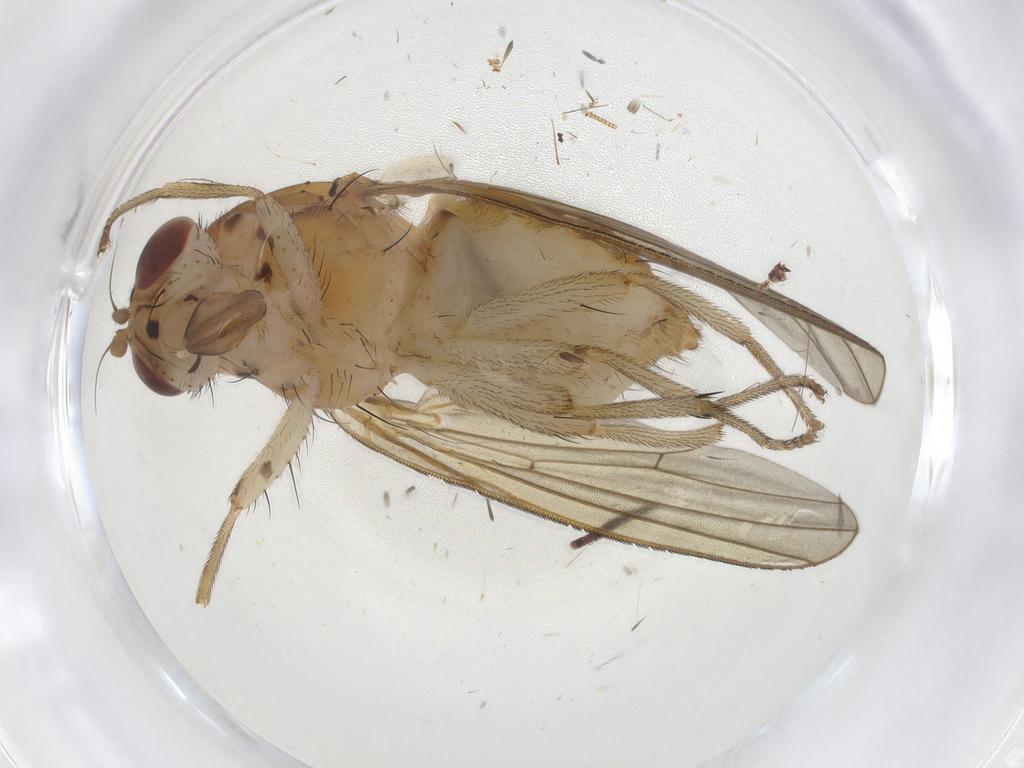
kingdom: Animalia
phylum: Arthropoda
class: Insecta
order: Diptera
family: Lauxaniidae
